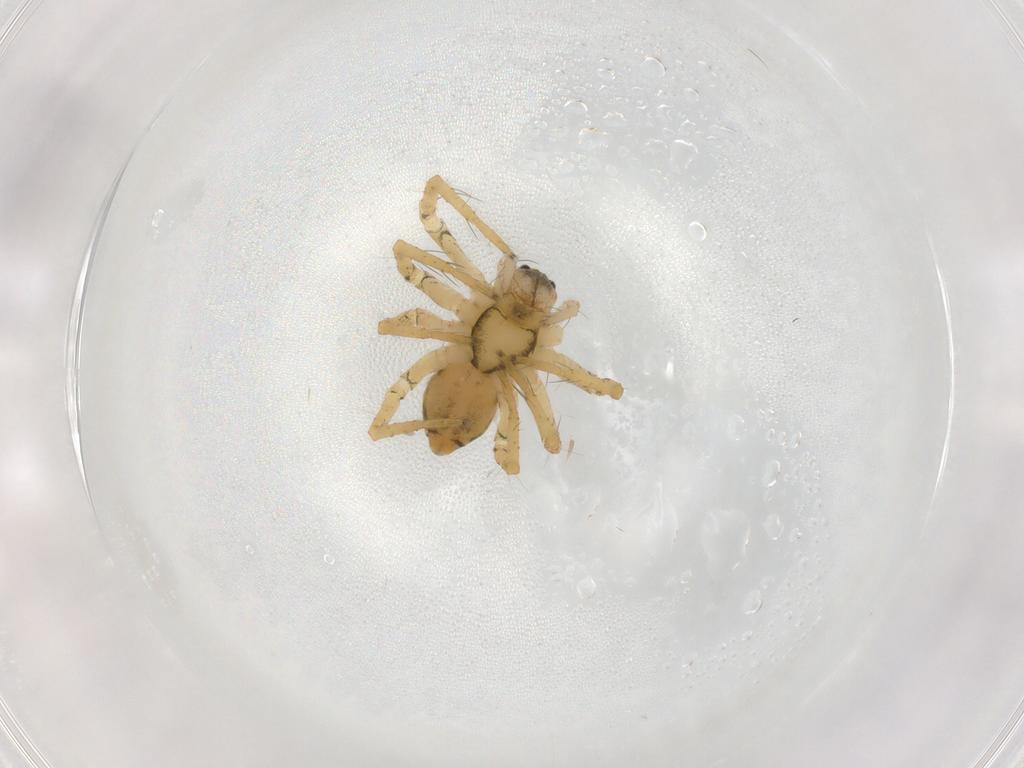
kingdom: Animalia
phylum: Arthropoda
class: Arachnida
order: Araneae
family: Pisauridae
